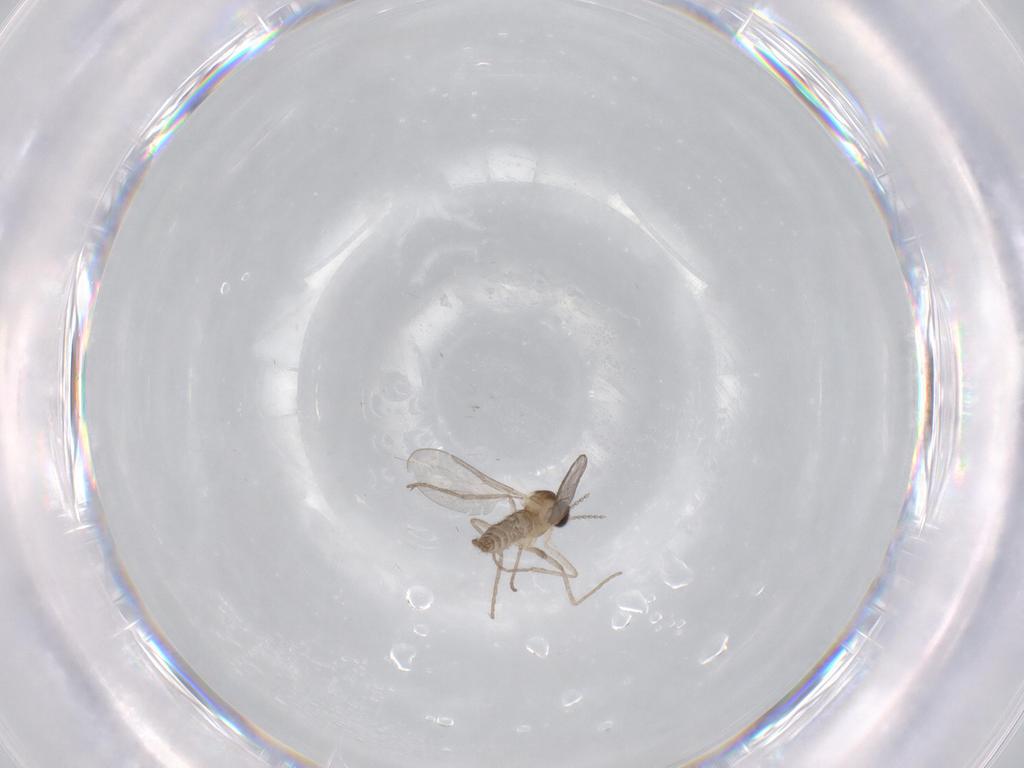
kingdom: Animalia
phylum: Arthropoda
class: Insecta
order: Diptera
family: Cecidomyiidae
